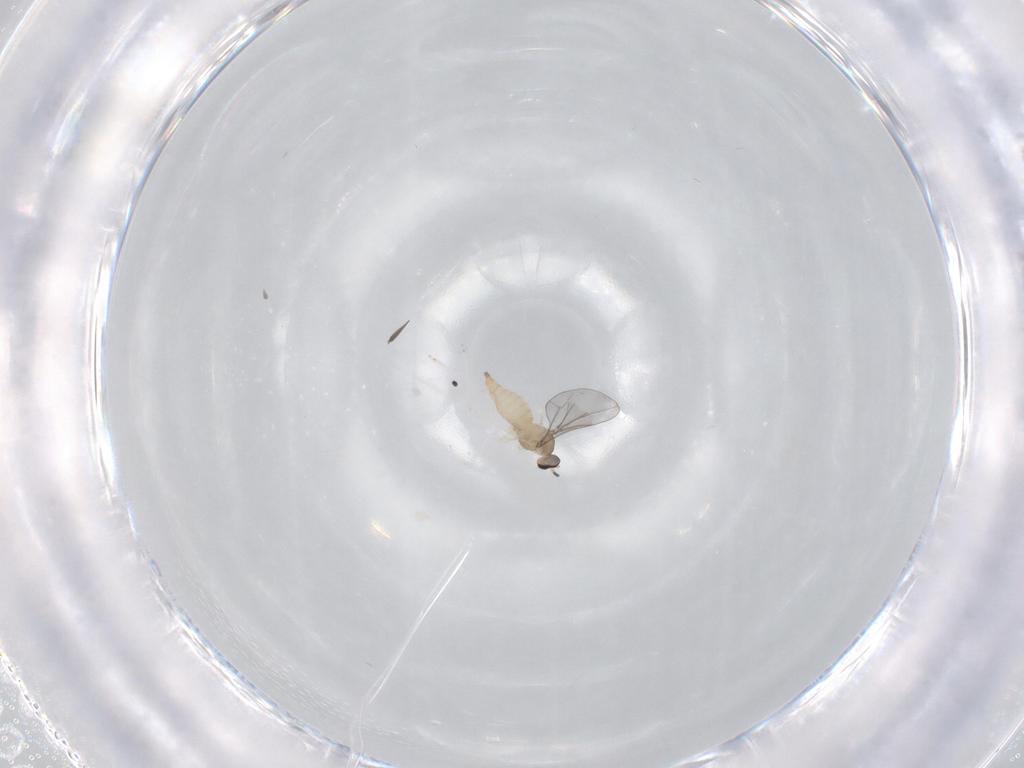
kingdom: Animalia
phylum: Arthropoda
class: Insecta
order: Diptera
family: Cecidomyiidae
